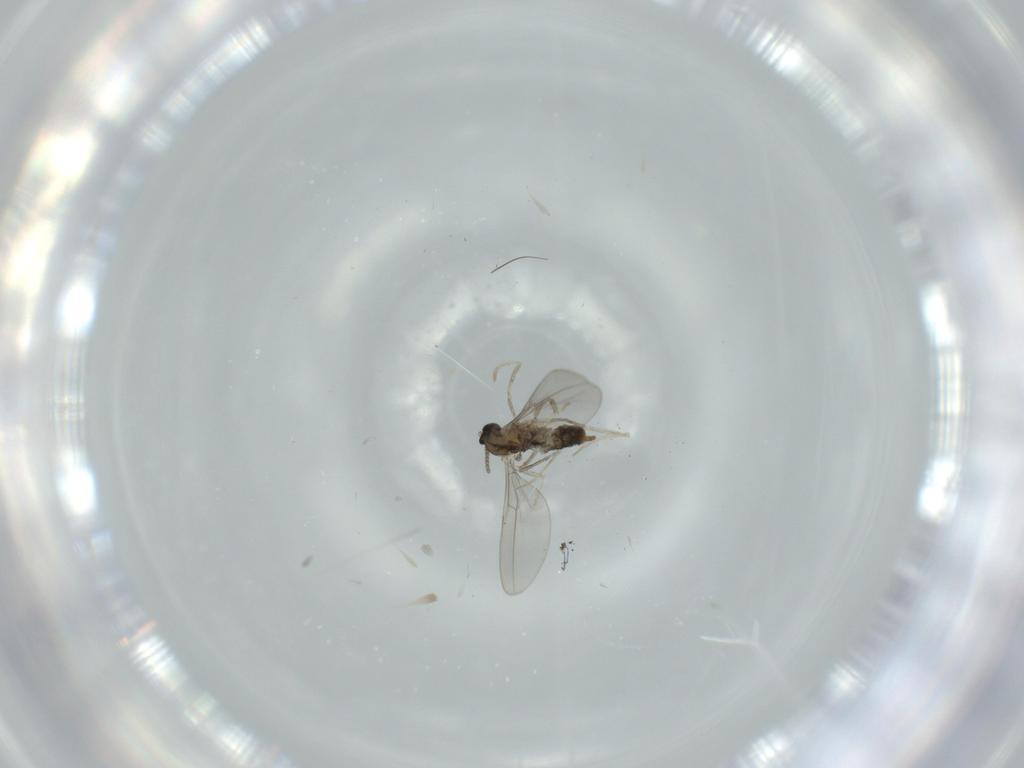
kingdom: Animalia
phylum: Arthropoda
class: Insecta
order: Diptera
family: Cecidomyiidae
